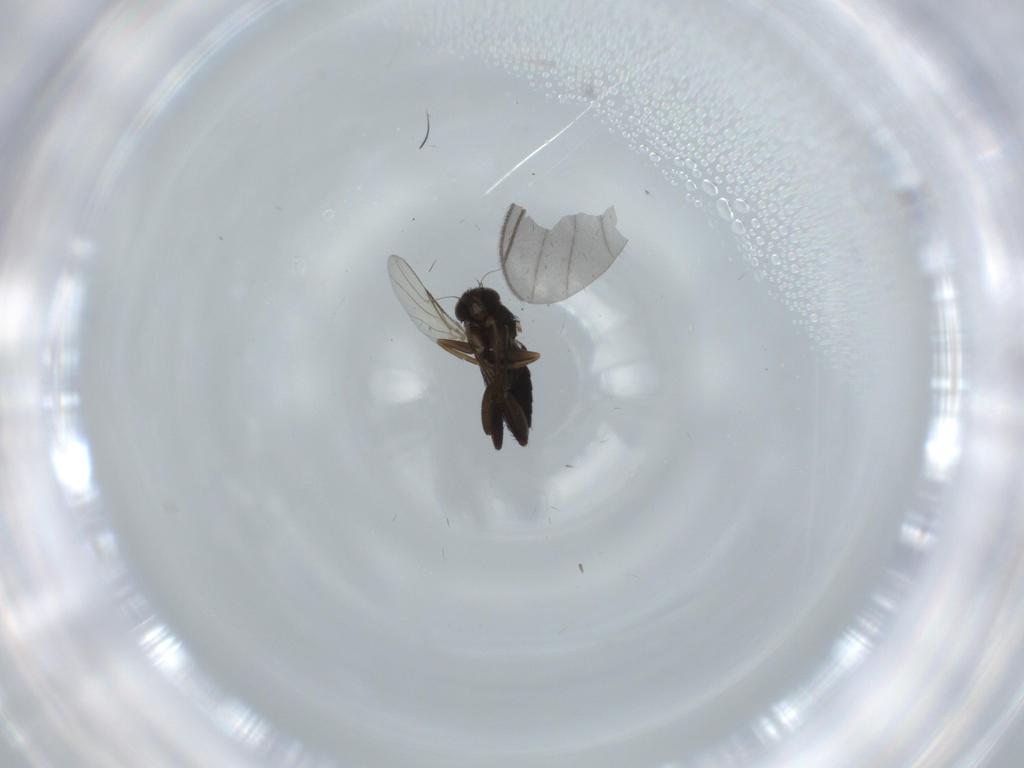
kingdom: Animalia
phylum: Arthropoda
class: Insecta
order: Diptera
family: Phoridae
